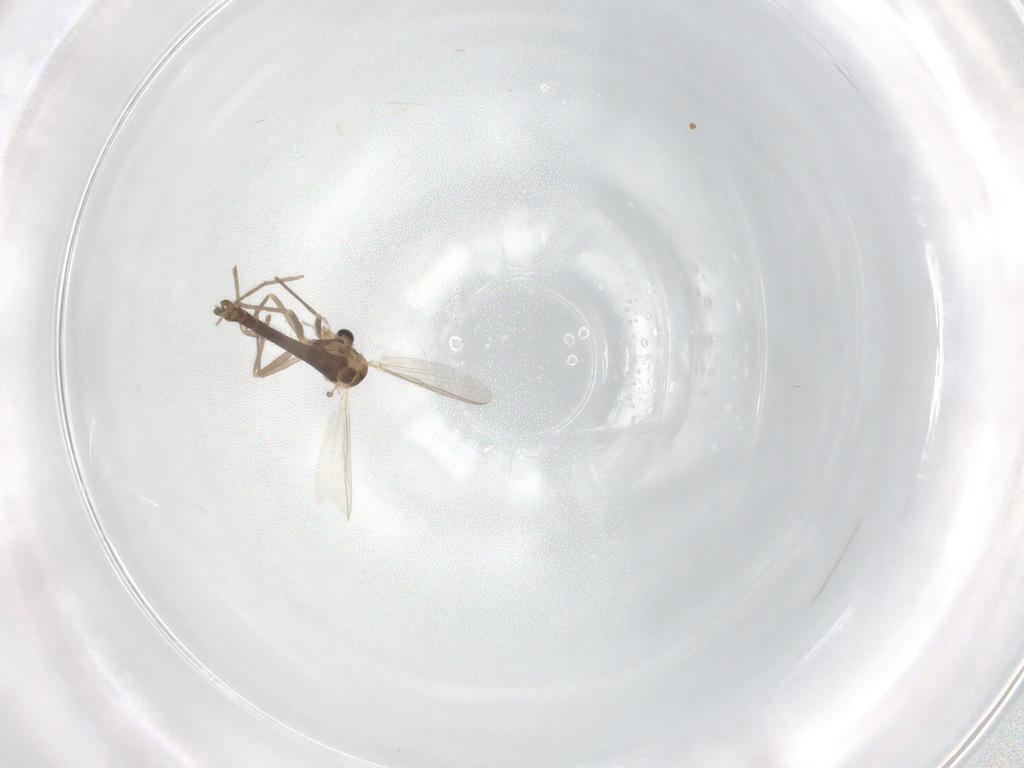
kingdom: Animalia
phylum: Arthropoda
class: Insecta
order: Diptera
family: Chironomidae
